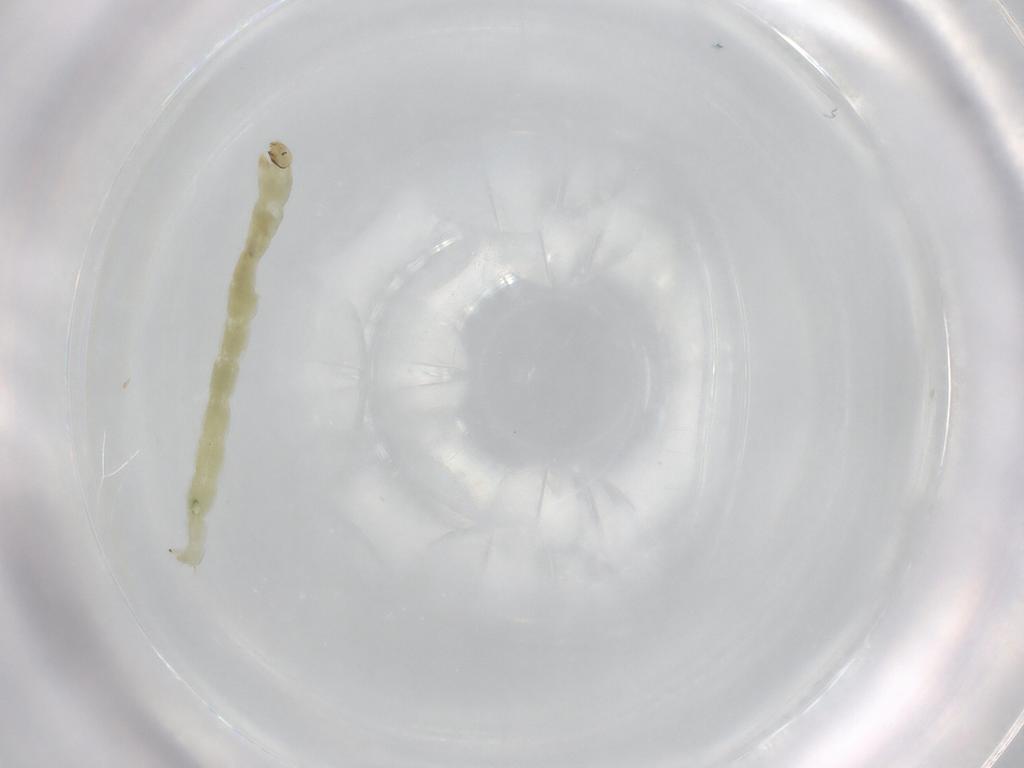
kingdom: Animalia
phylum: Arthropoda
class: Insecta
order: Diptera
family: Chironomidae
